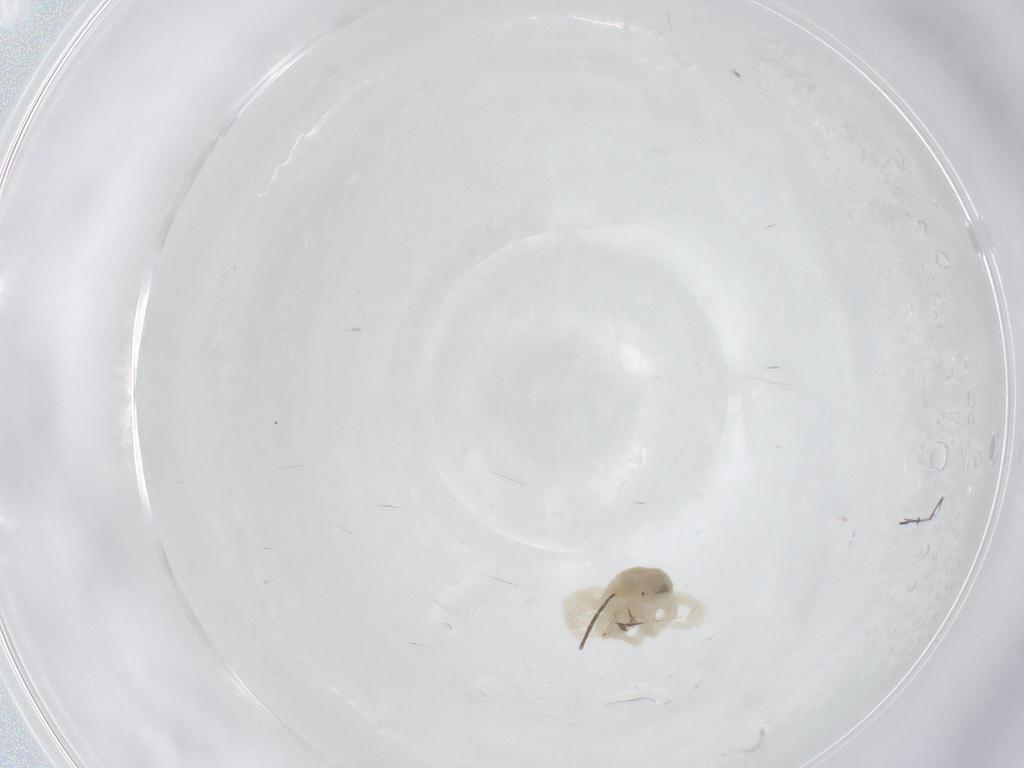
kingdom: Animalia
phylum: Arthropoda
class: Arachnida
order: Trombidiformes
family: Anystidae
